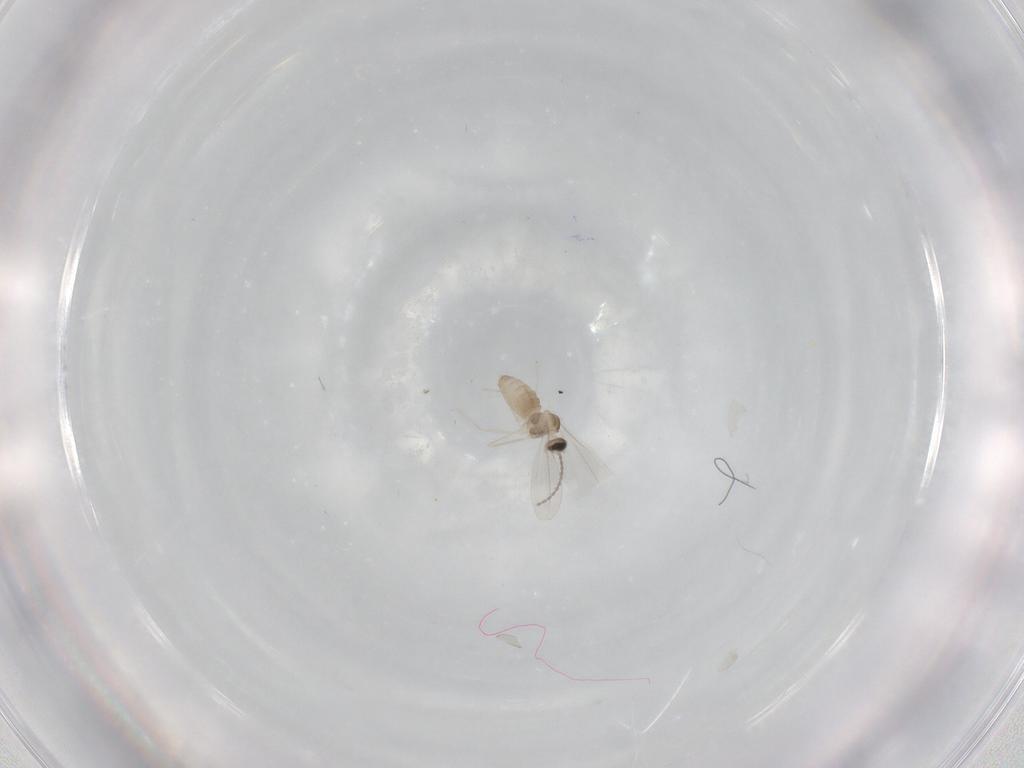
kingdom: Animalia
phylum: Arthropoda
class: Insecta
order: Diptera
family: Cecidomyiidae
